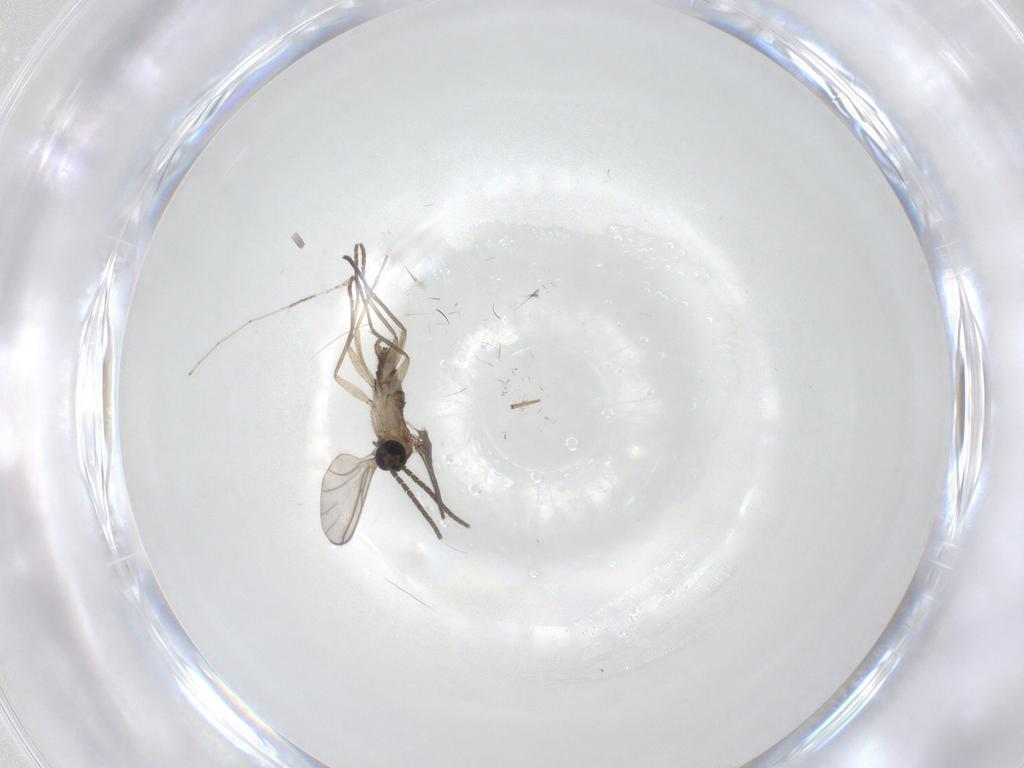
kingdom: Animalia
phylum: Arthropoda
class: Insecta
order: Diptera
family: Sciaridae
